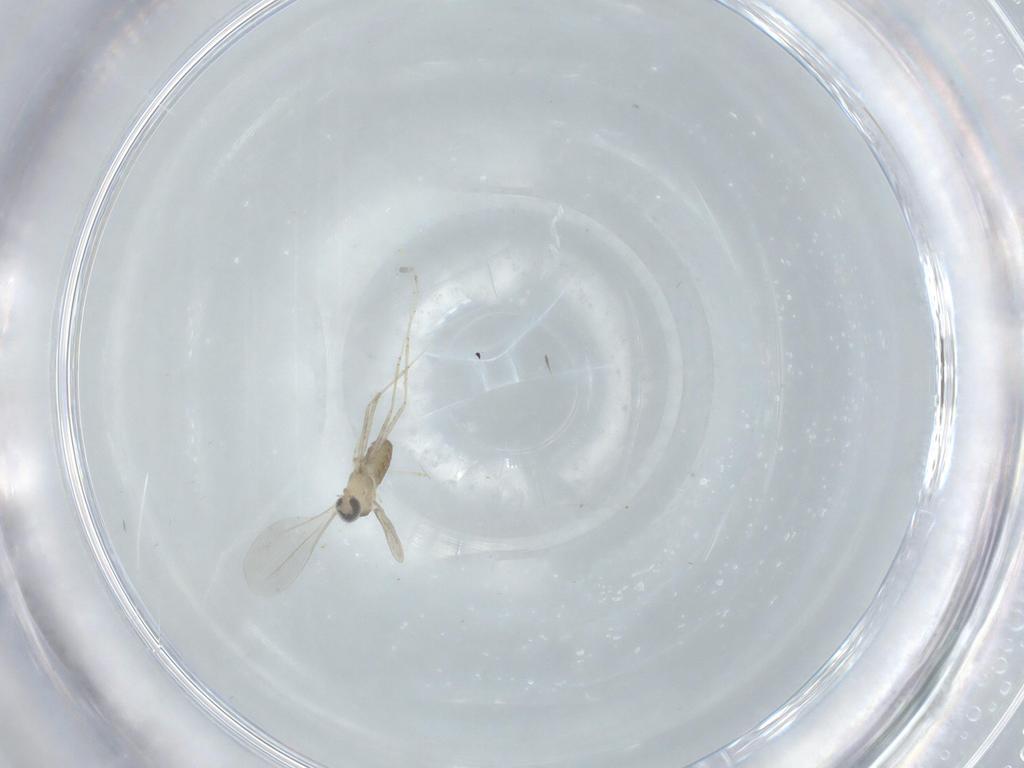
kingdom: Animalia
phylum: Arthropoda
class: Insecta
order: Diptera
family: Cecidomyiidae
